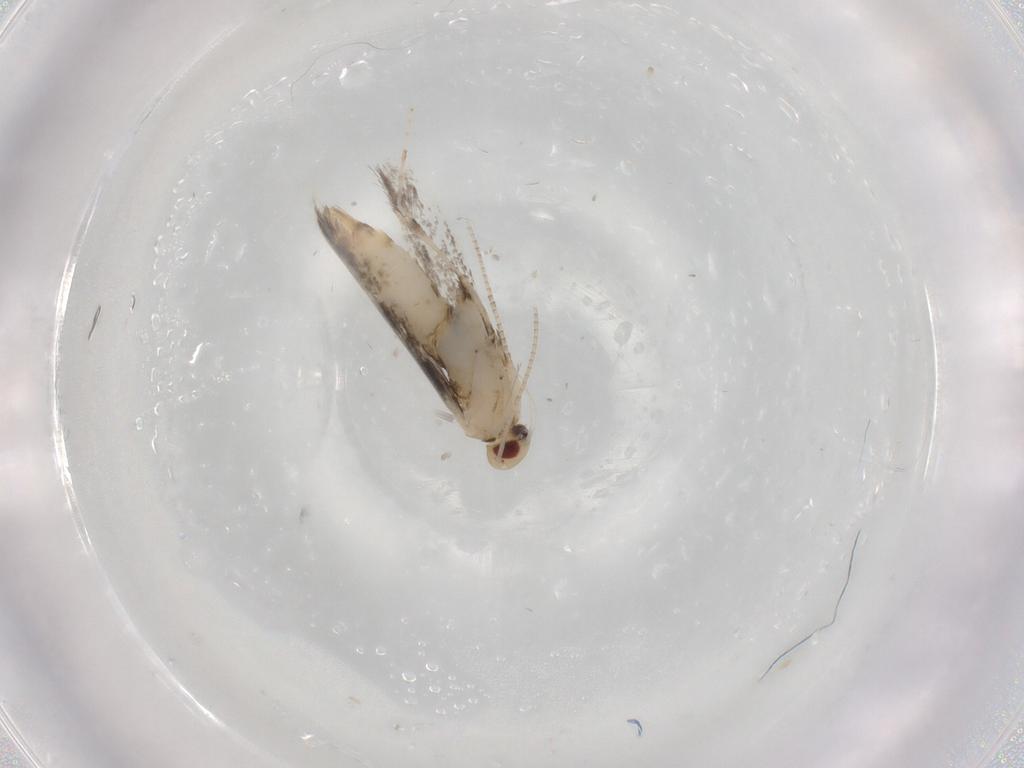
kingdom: Animalia
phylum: Arthropoda
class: Insecta
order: Lepidoptera
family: Gracillariidae
